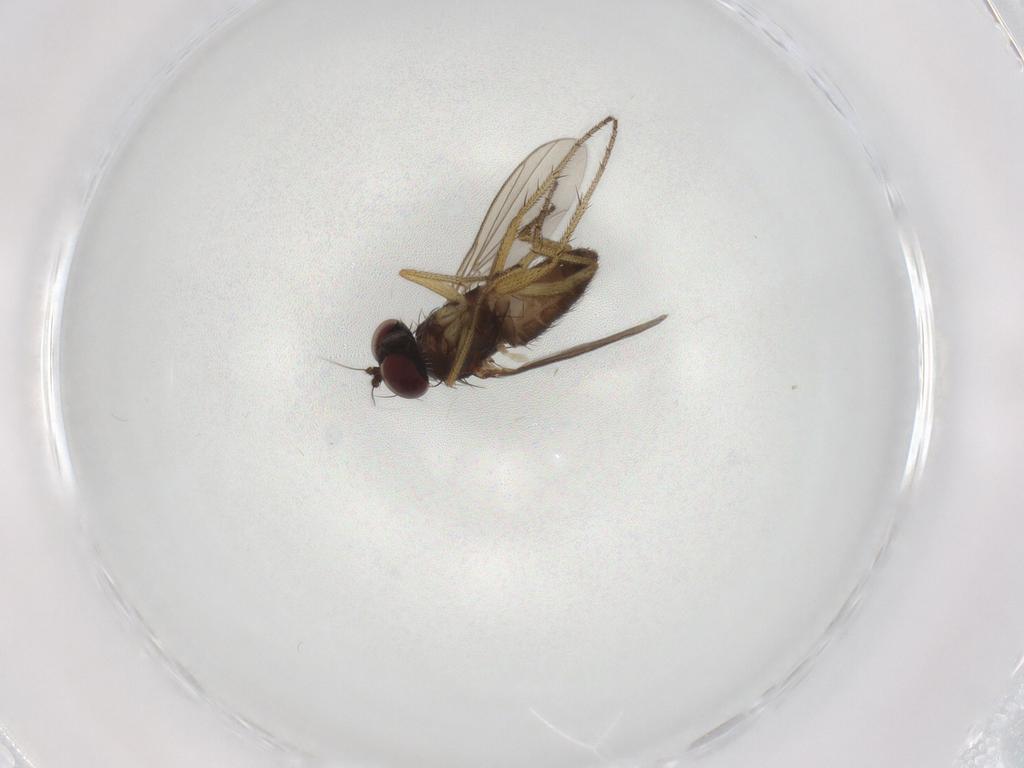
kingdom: Animalia
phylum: Arthropoda
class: Insecta
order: Diptera
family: Chironomidae
